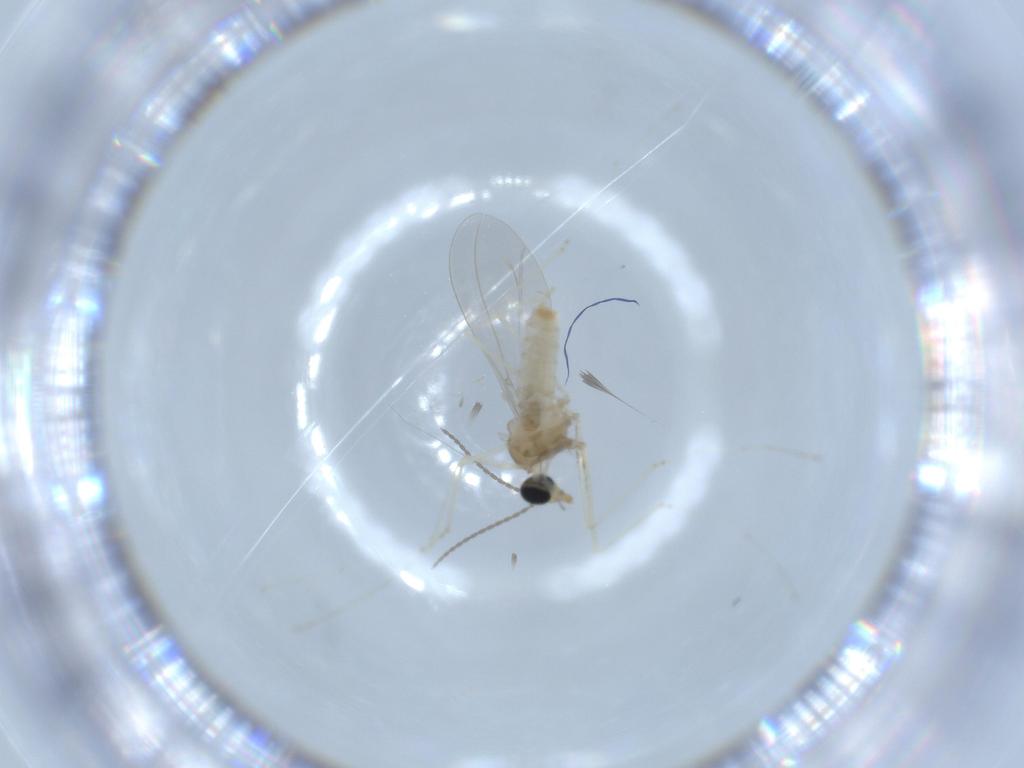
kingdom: Animalia
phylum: Arthropoda
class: Insecta
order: Diptera
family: Cecidomyiidae
